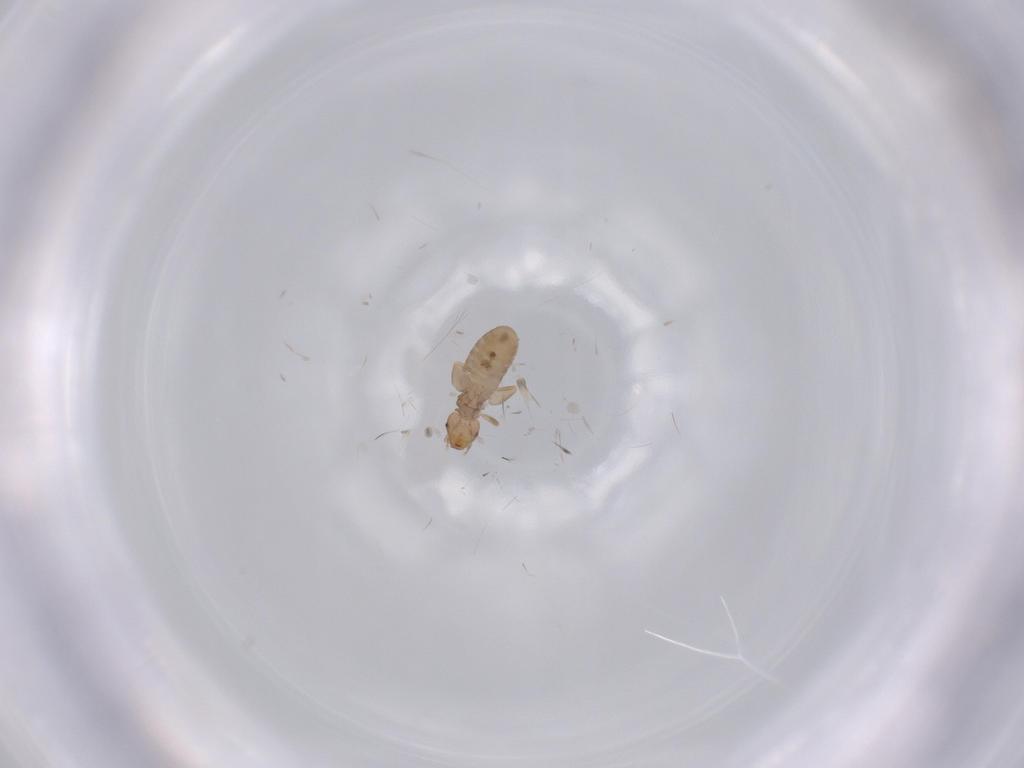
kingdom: Animalia
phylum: Arthropoda
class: Insecta
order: Psocodea
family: Liposcelididae
